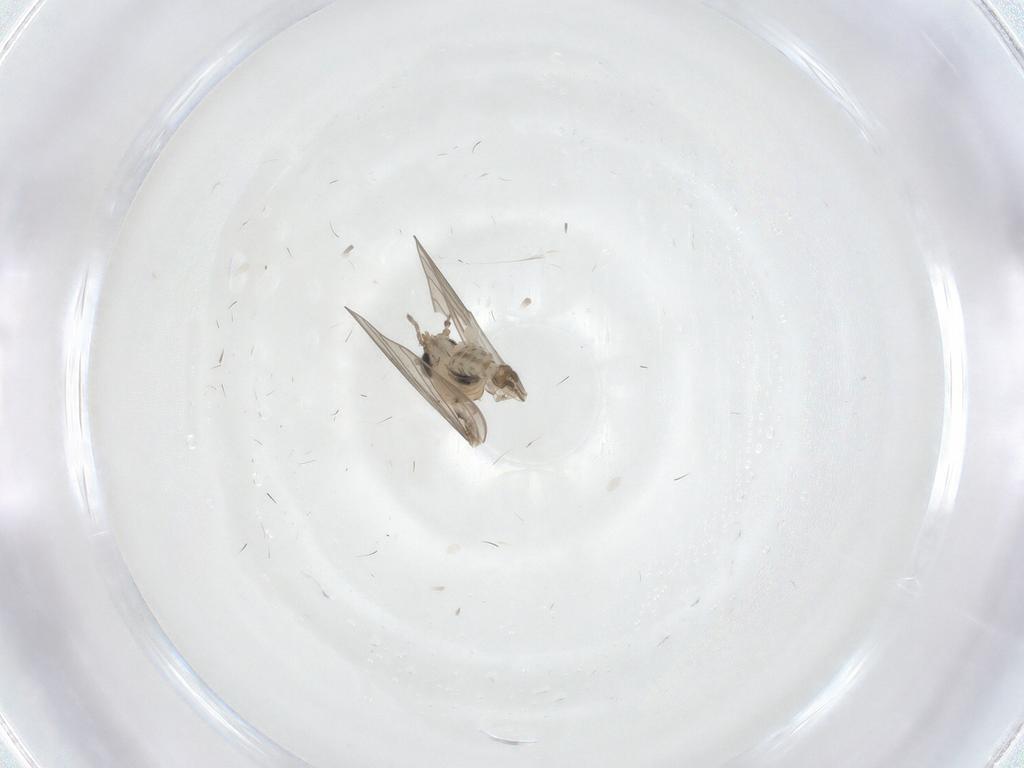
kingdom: Animalia
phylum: Arthropoda
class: Insecta
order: Diptera
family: Psychodidae
